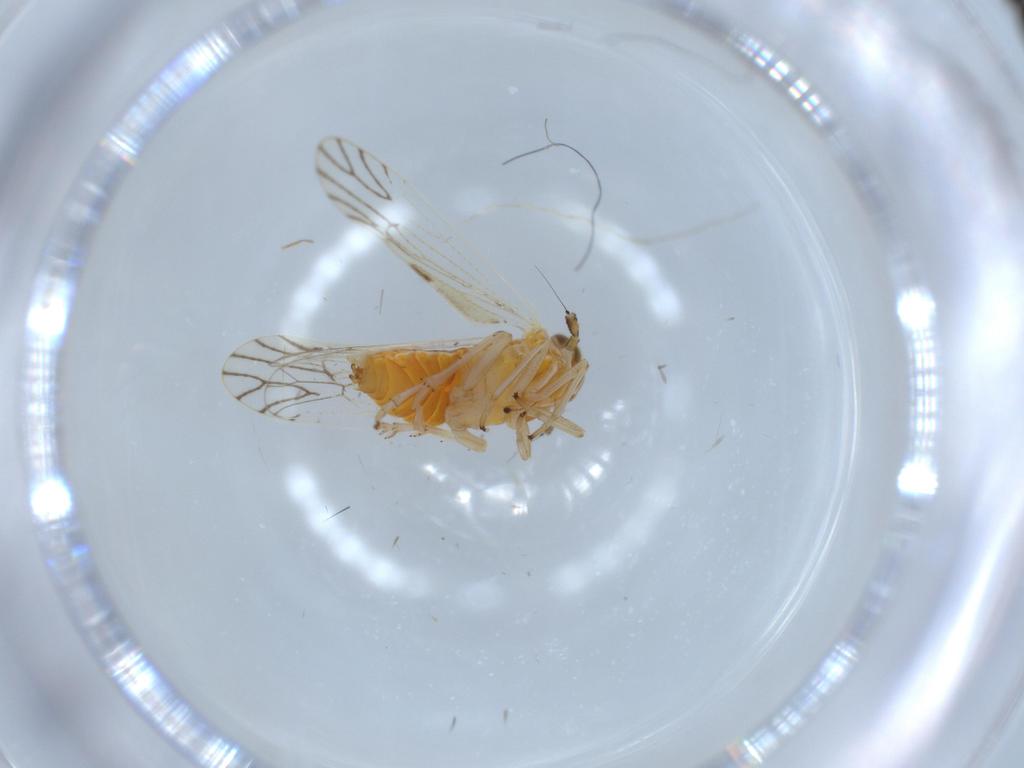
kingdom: Animalia
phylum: Arthropoda
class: Insecta
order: Hemiptera
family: Delphacidae
